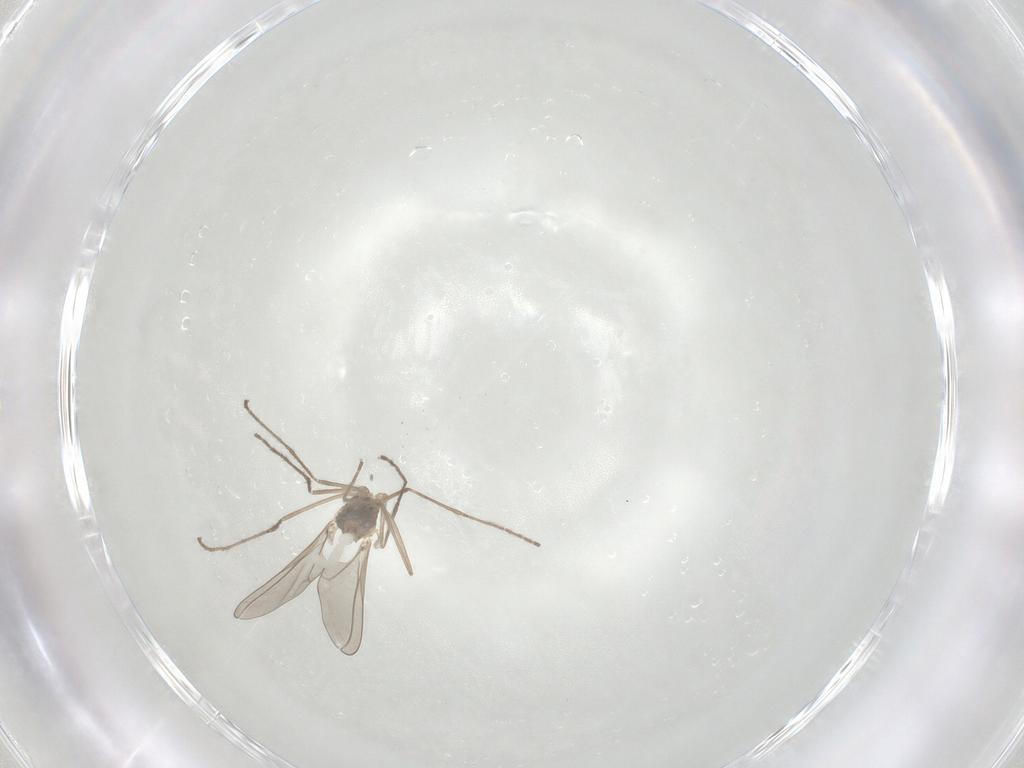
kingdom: Animalia
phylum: Arthropoda
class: Insecta
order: Diptera
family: Cecidomyiidae
